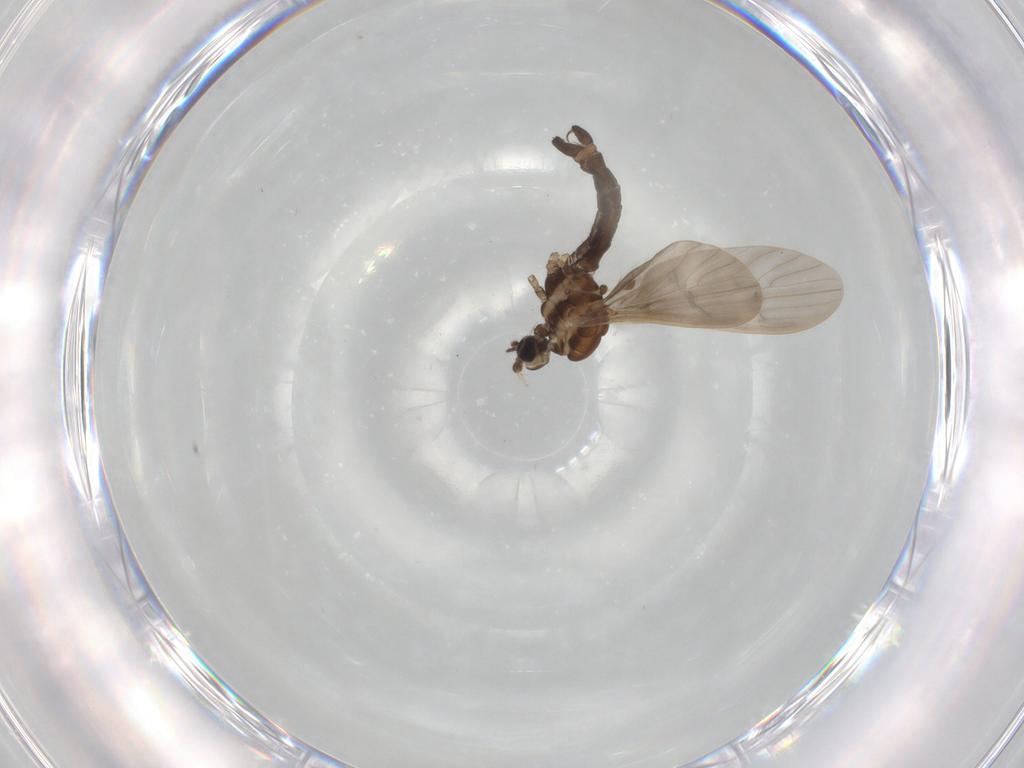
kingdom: Animalia
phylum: Arthropoda
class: Insecta
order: Diptera
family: Limoniidae
